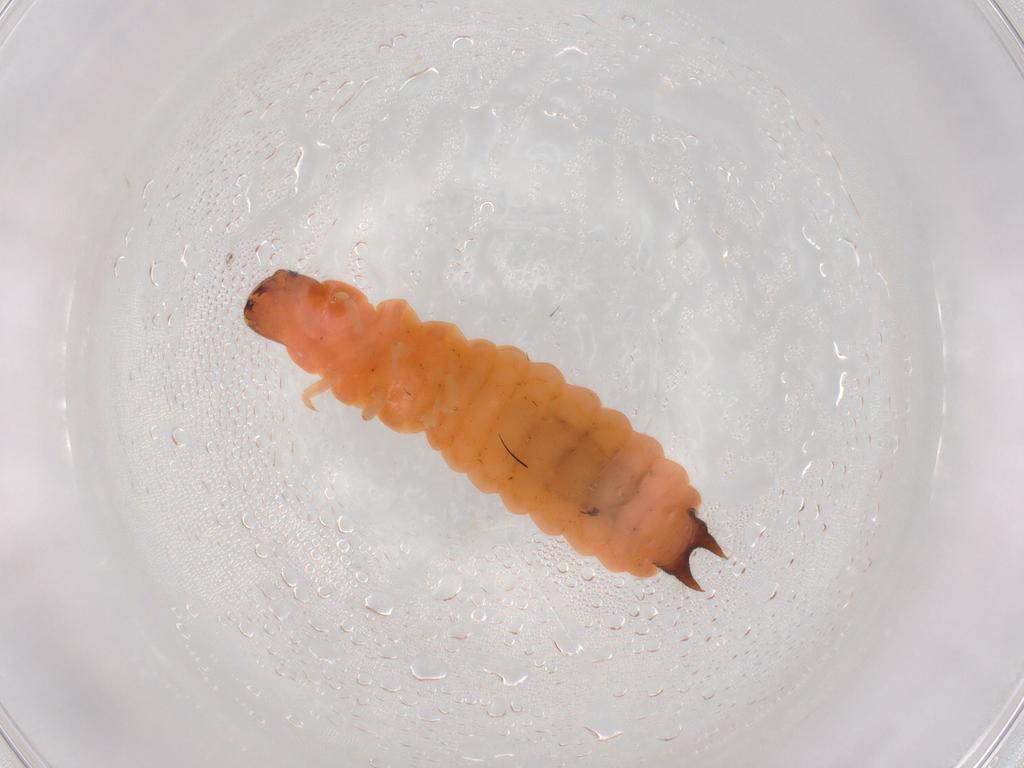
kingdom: Animalia
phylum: Arthropoda
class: Insecta
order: Coleoptera
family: Melyridae
